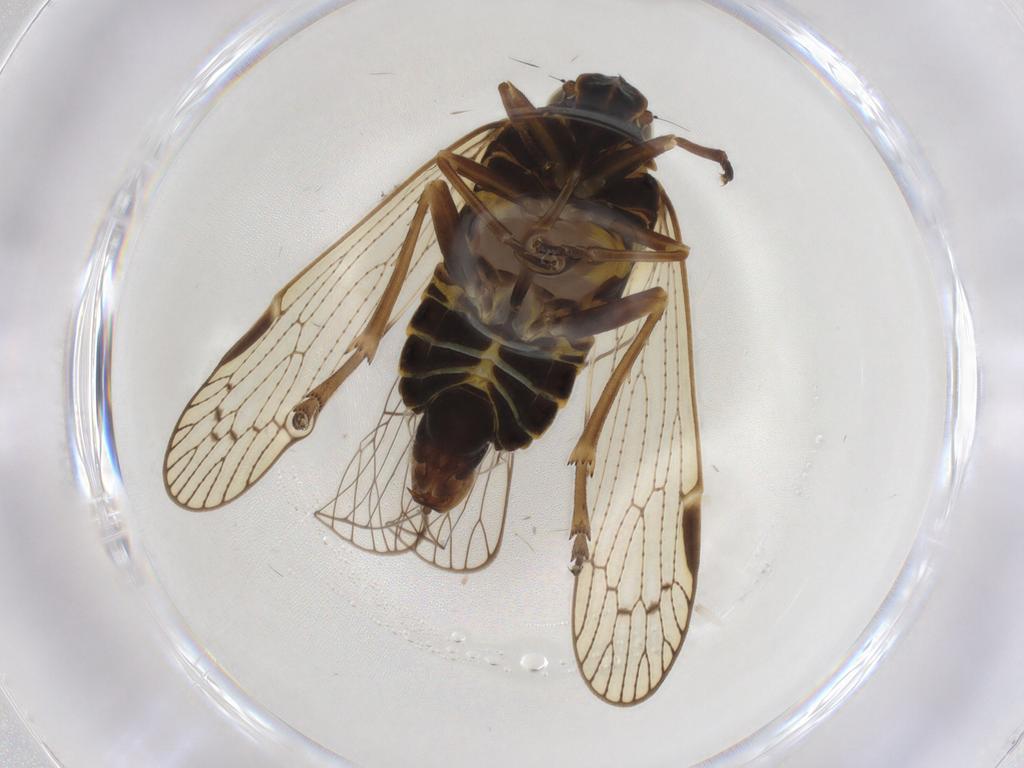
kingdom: Animalia
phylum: Arthropoda
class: Insecta
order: Hemiptera
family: Cixiidae
